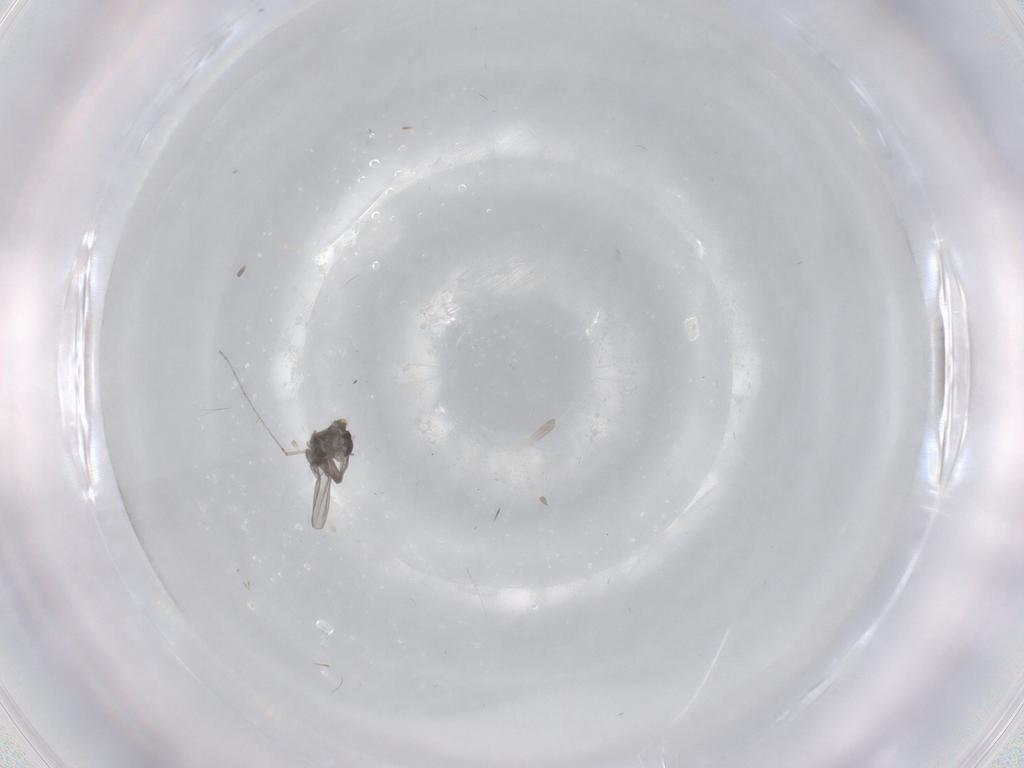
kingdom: Animalia
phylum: Arthropoda
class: Insecta
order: Diptera
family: Cecidomyiidae
